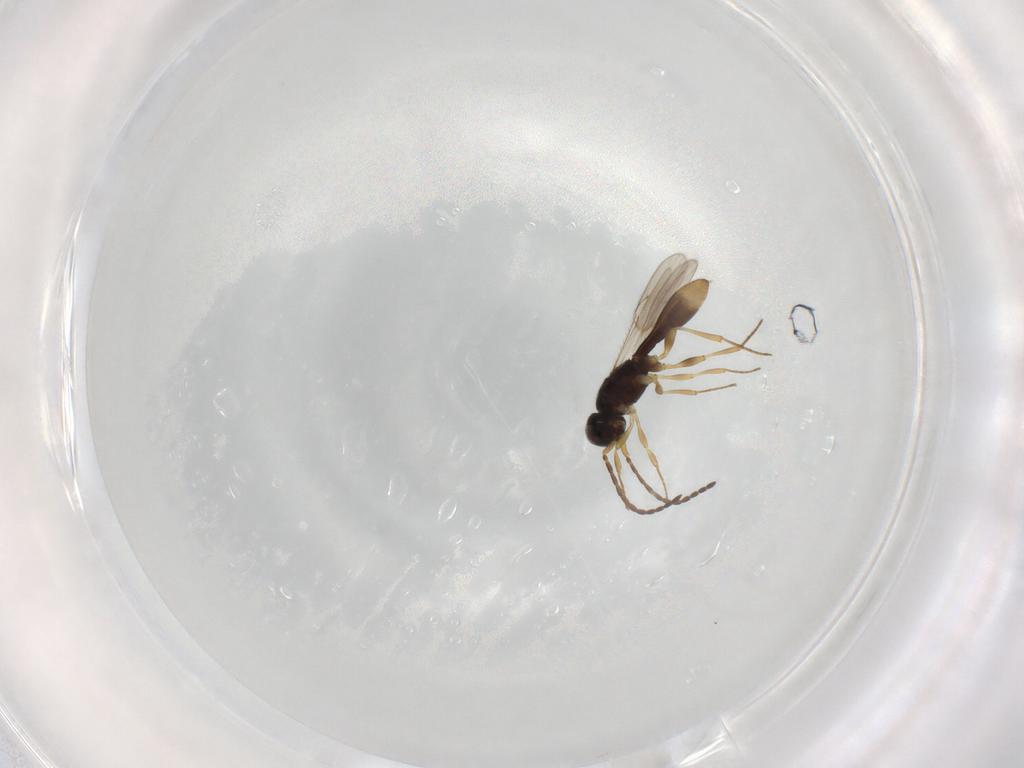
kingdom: Animalia
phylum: Arthropoda
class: Insecta
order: Hymenoptera
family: Scelionidae
